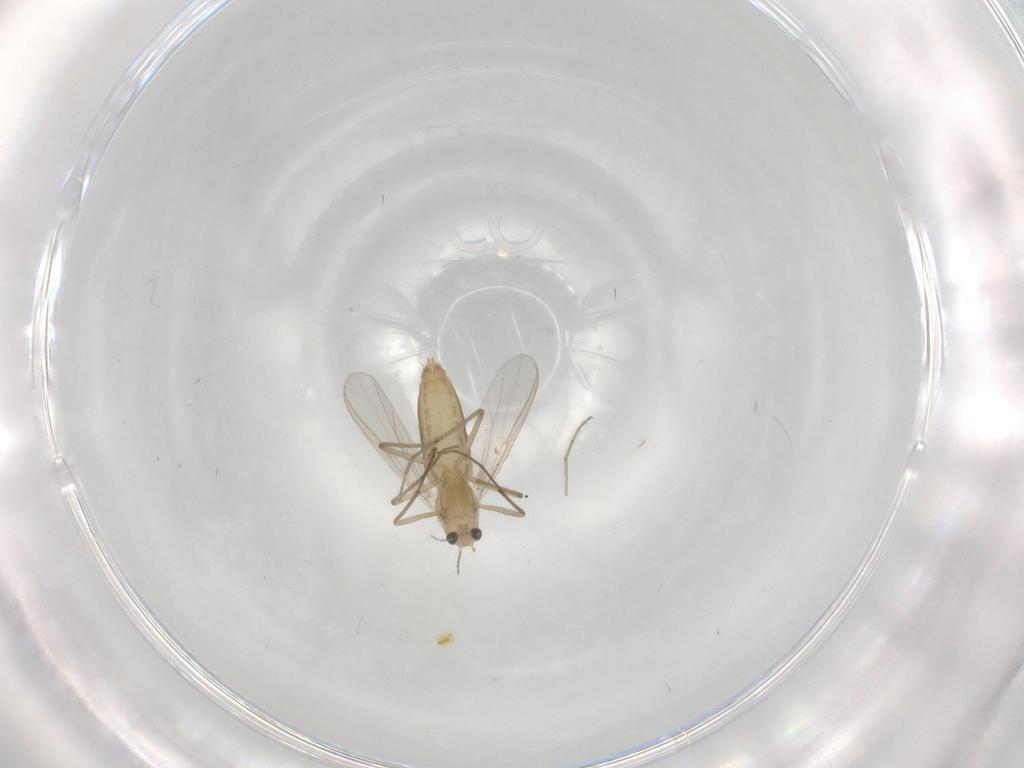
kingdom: Animalia
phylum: Arthropoda
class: Insecta
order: Diptera
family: Chironomidae
